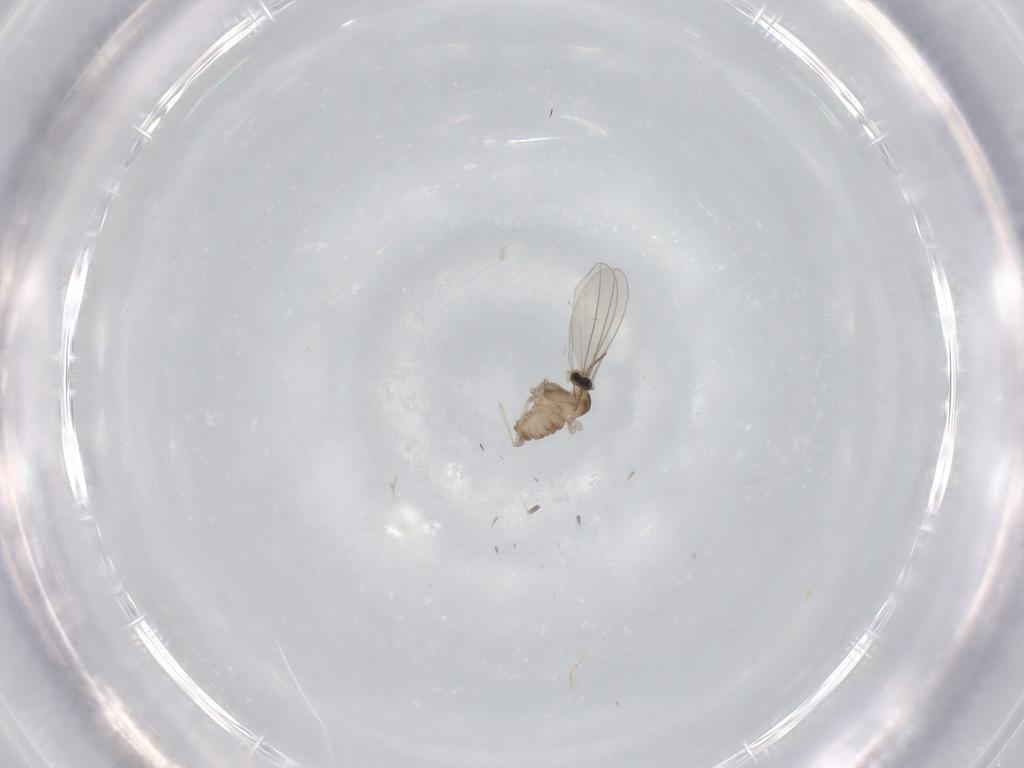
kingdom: Animalia
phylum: Arthropoda
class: Insecta
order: Diptera
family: Cecidomyiidae
